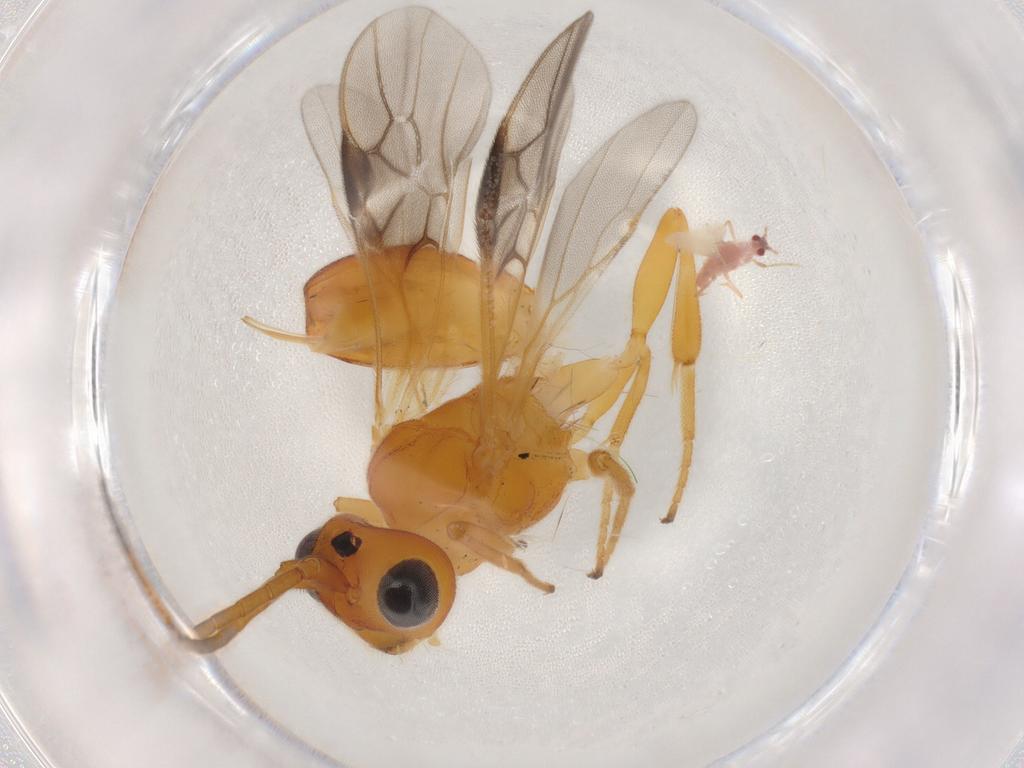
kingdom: Animalia
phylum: Arthropoda
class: Insecta
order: Hymenoptera
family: Braconidae
